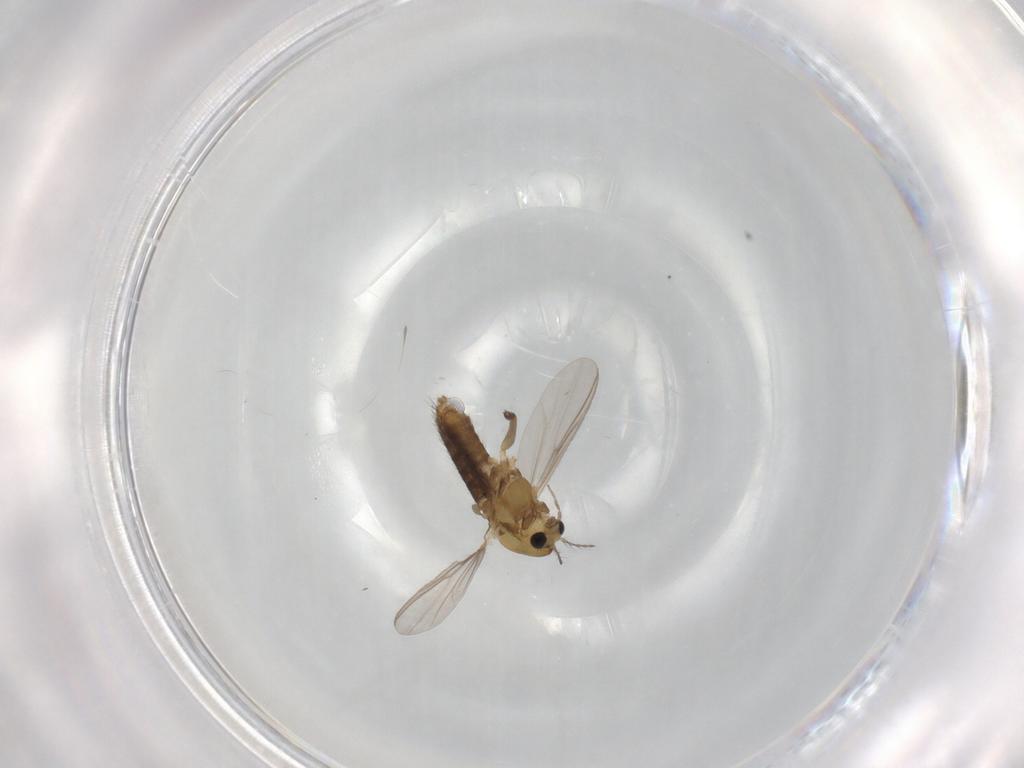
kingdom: Animalia
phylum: Arthropoda
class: Insecta
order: Diptera
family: Chironomidae
